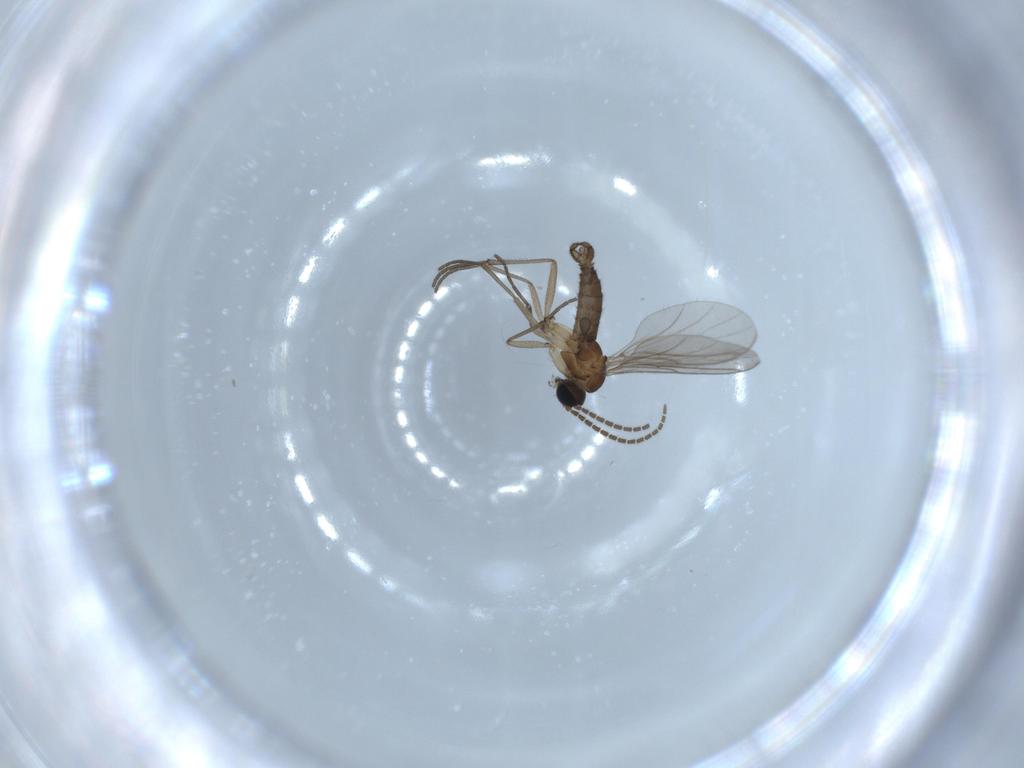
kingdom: Animalia
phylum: Arthropoda
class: Insecta
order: Diptera
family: Sciaridae
